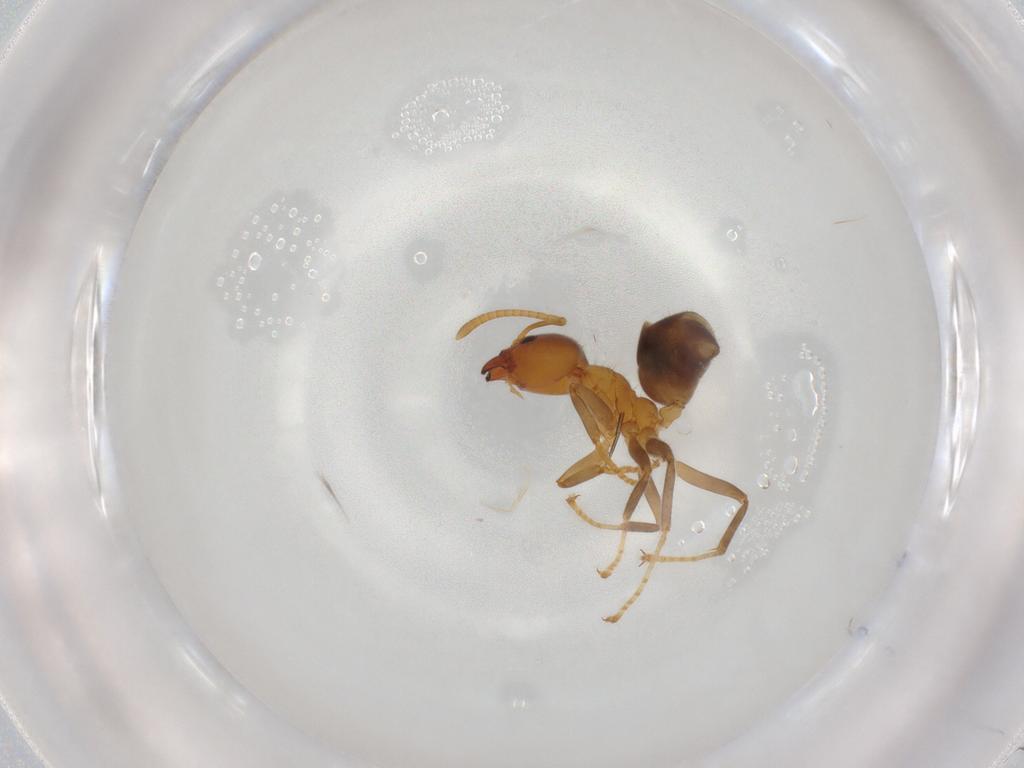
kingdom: Animalia
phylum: Arthropoda
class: Insecta
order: Hymenoptera
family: Formicidae
